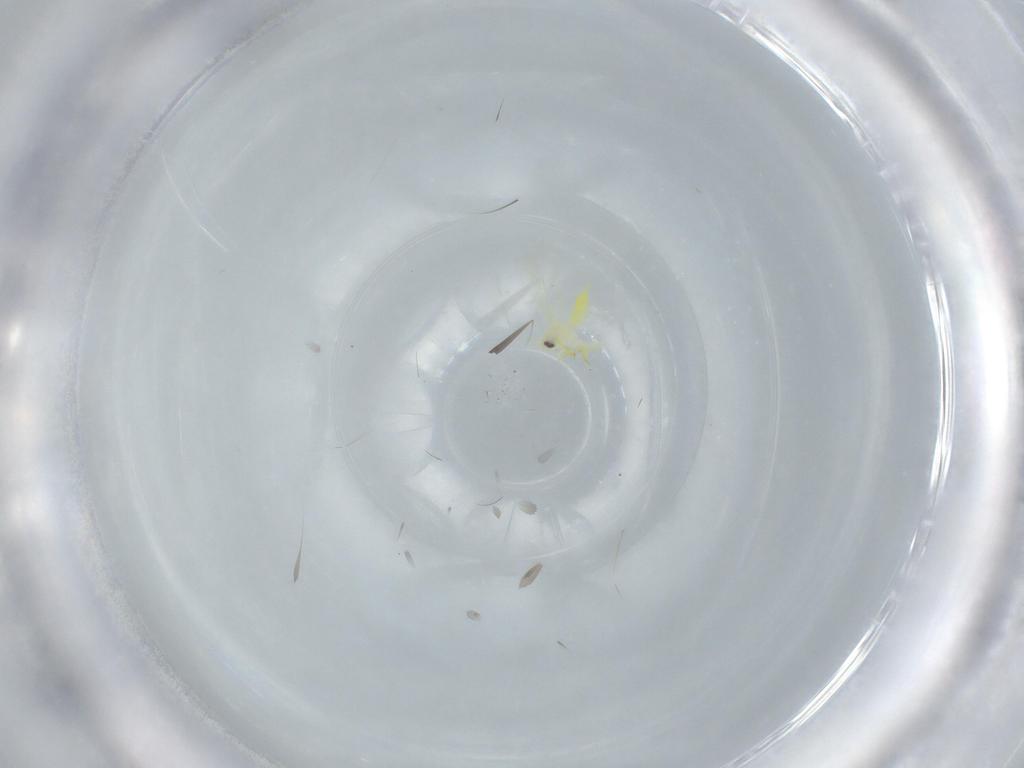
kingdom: Animalia
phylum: Arthropoda
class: Insecta
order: Hemiptera
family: Aleyrodidae
